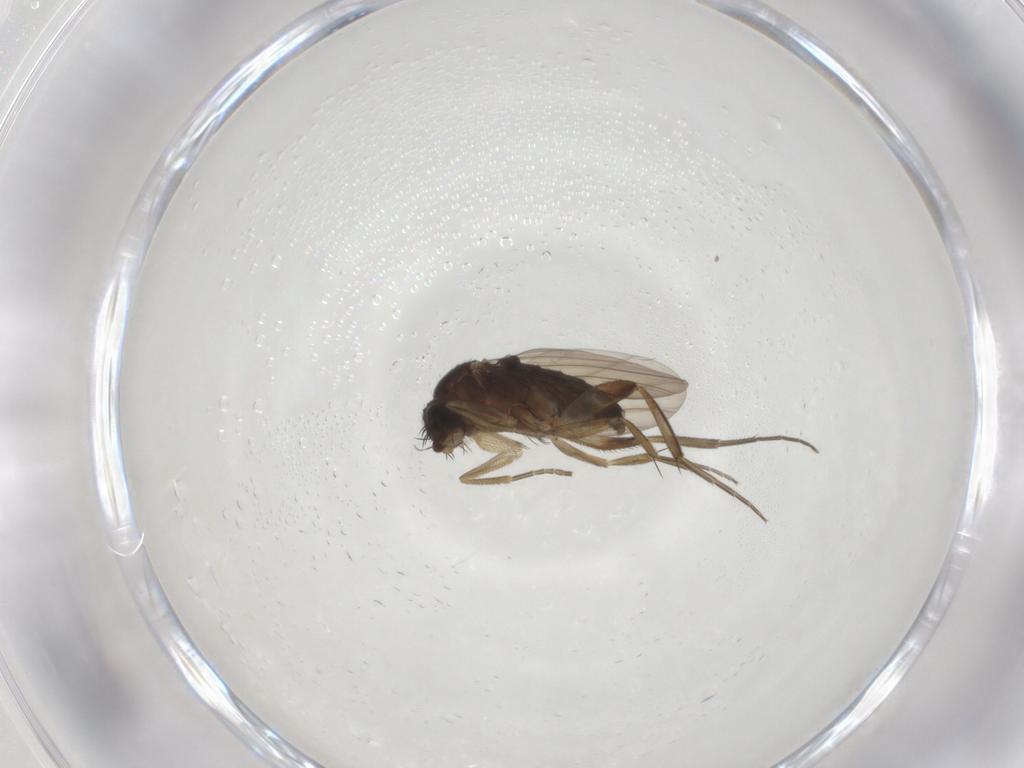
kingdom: Animalia
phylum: Arthropoda
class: Insecta
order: Diptera
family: Phoridae
